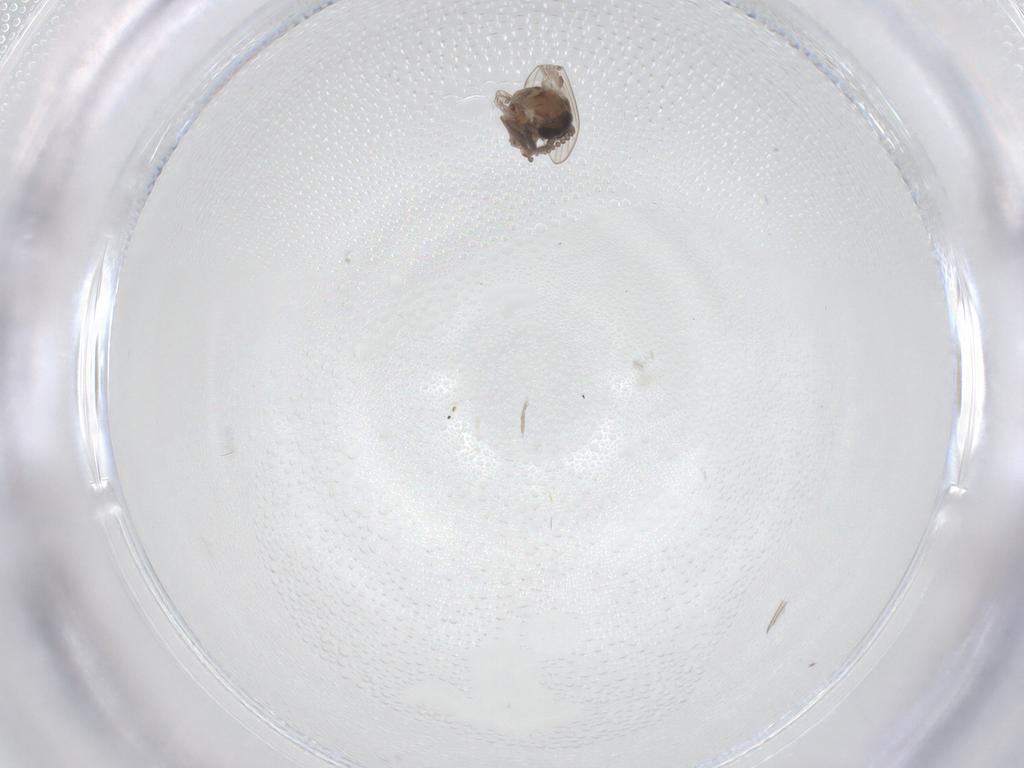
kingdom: Animalia
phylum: Arthropoda
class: Insecta
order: Diptera
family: Psychodidae
